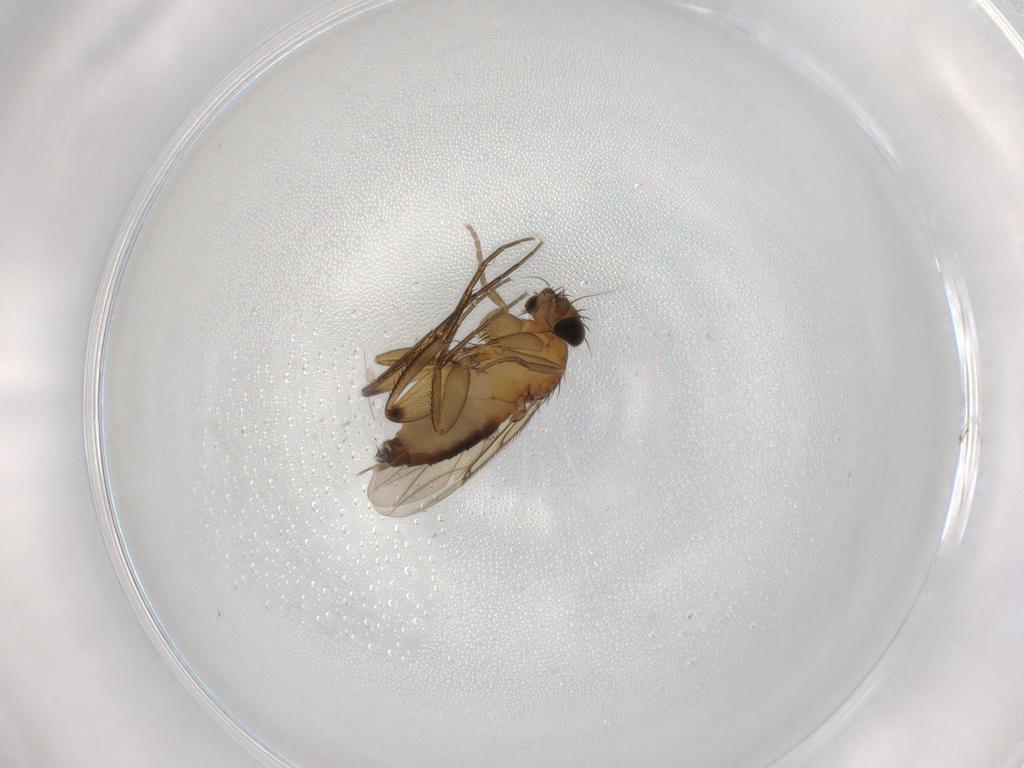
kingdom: Animalia
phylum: Arthropoda
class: Insecta
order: Diptera
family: Phoridae
